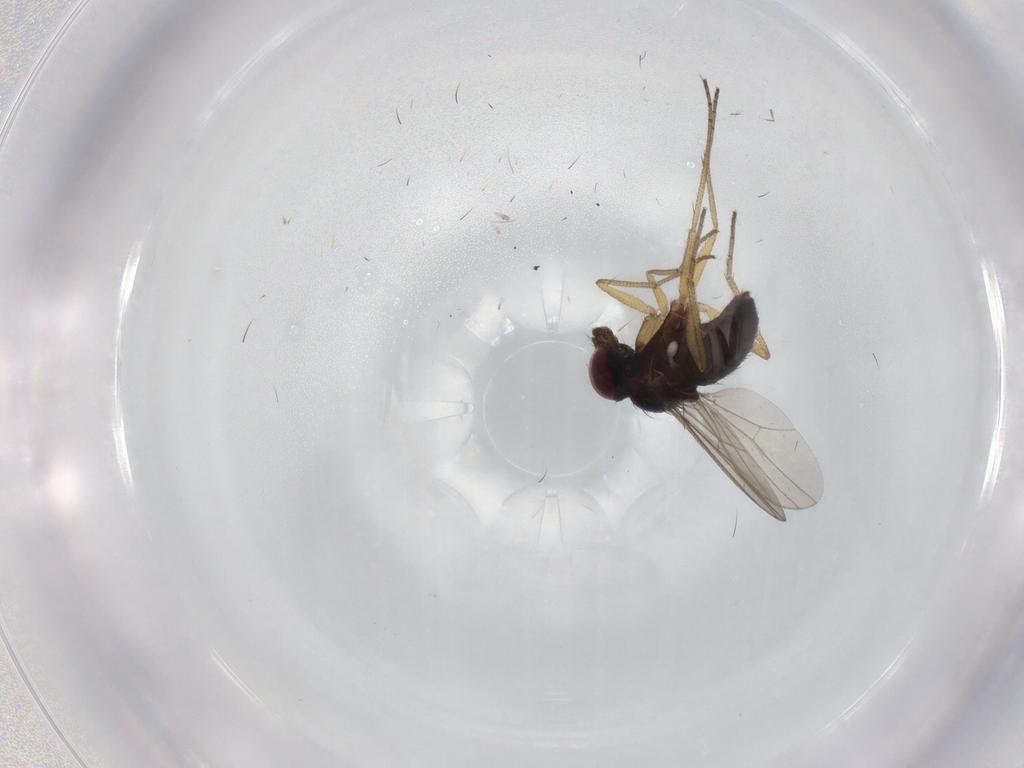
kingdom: Animalia
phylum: Arthropoda
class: Insecta
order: Diptera
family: Dolichopodidae
